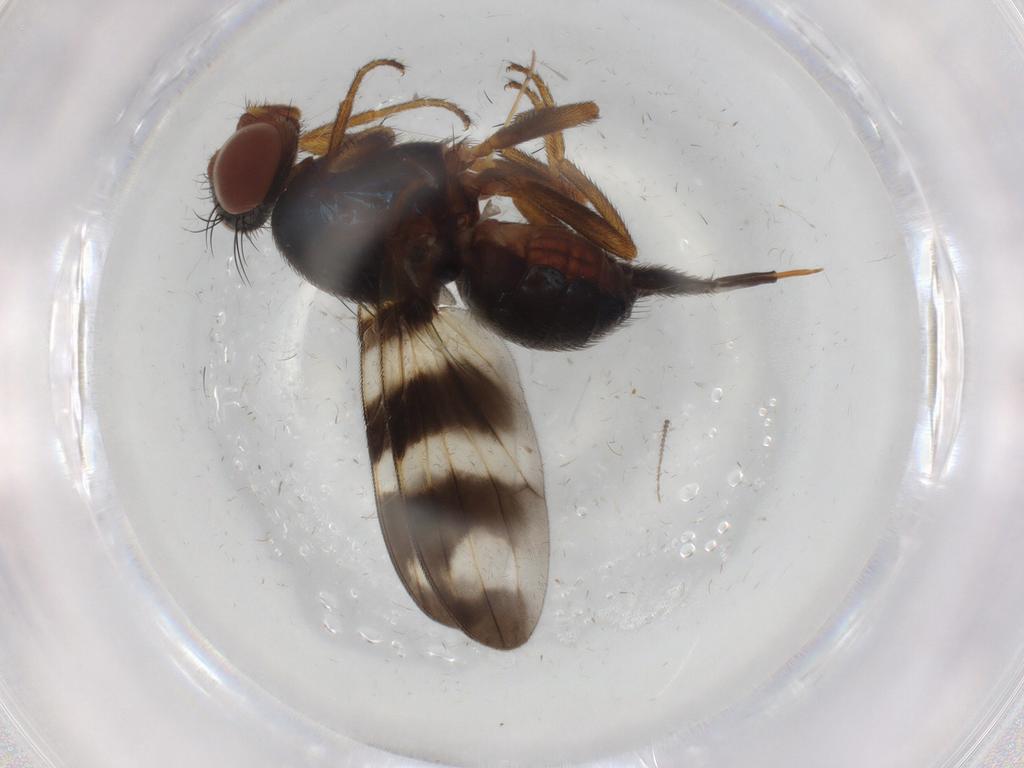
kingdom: Animalia
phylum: Arthropoda
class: Insecta
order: Diptera
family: Ceratopogonidae
